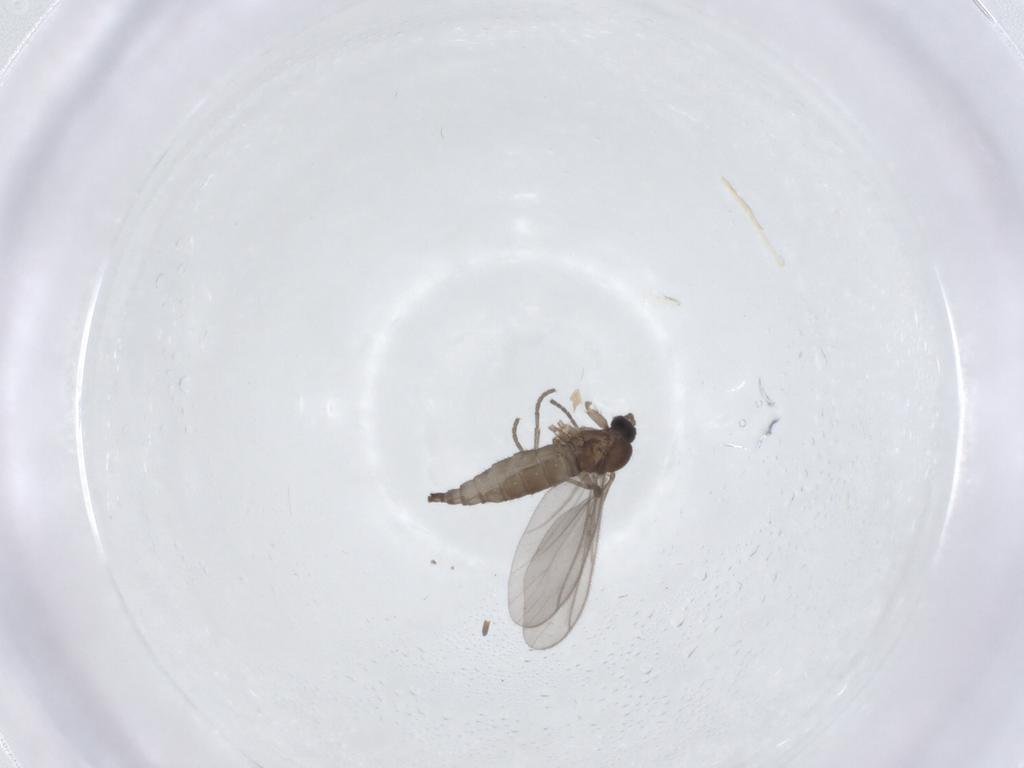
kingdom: Animalia
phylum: Arthropoda
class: Insecta
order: Diptera
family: Sciaridae
